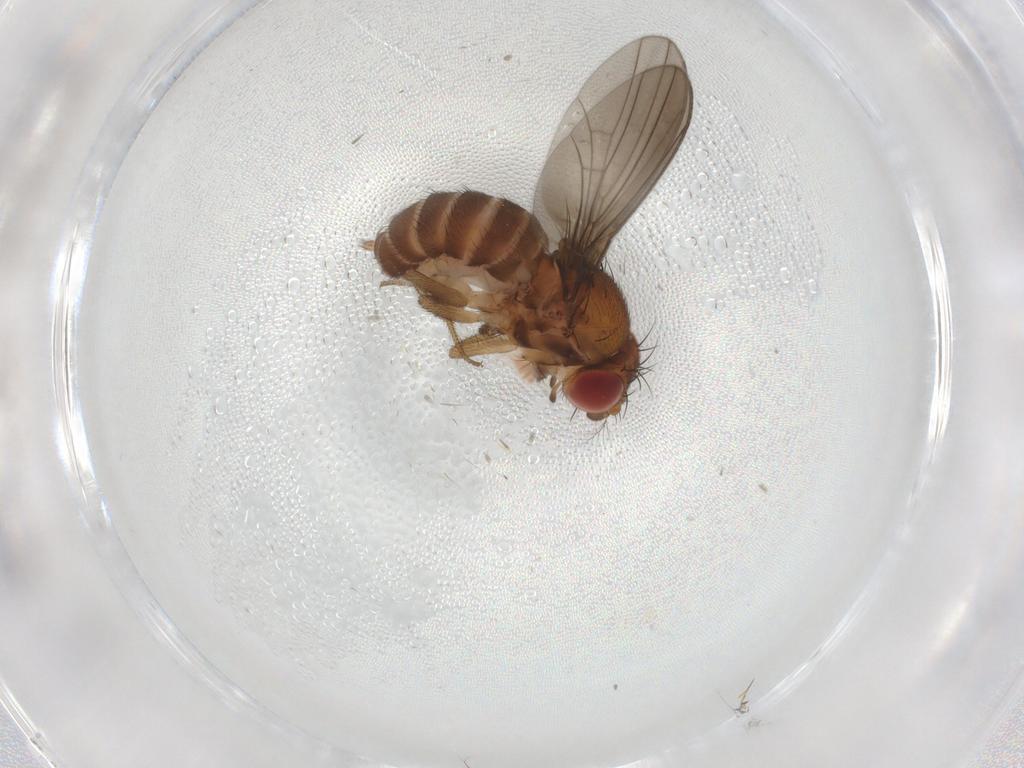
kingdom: Animalia
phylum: Arthropoda
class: Insecta
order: Diptera
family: Drosophilidae
